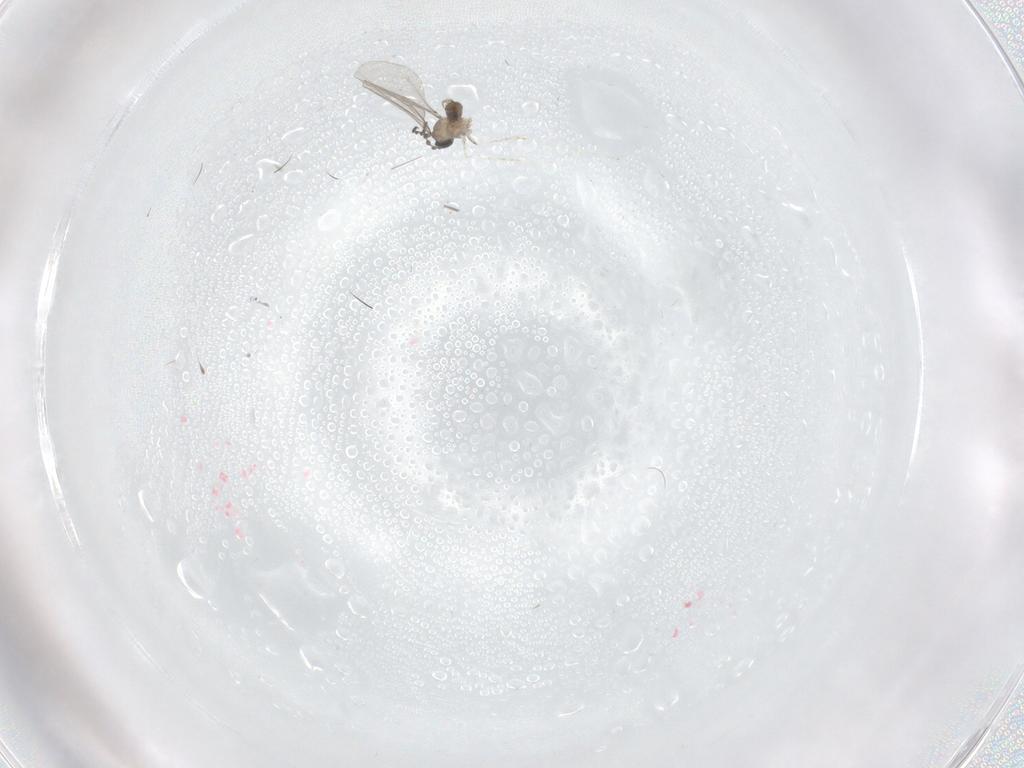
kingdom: Animalia
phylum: Arthropoda
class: Insecta
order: Diptera
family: Cecidomyiidae
